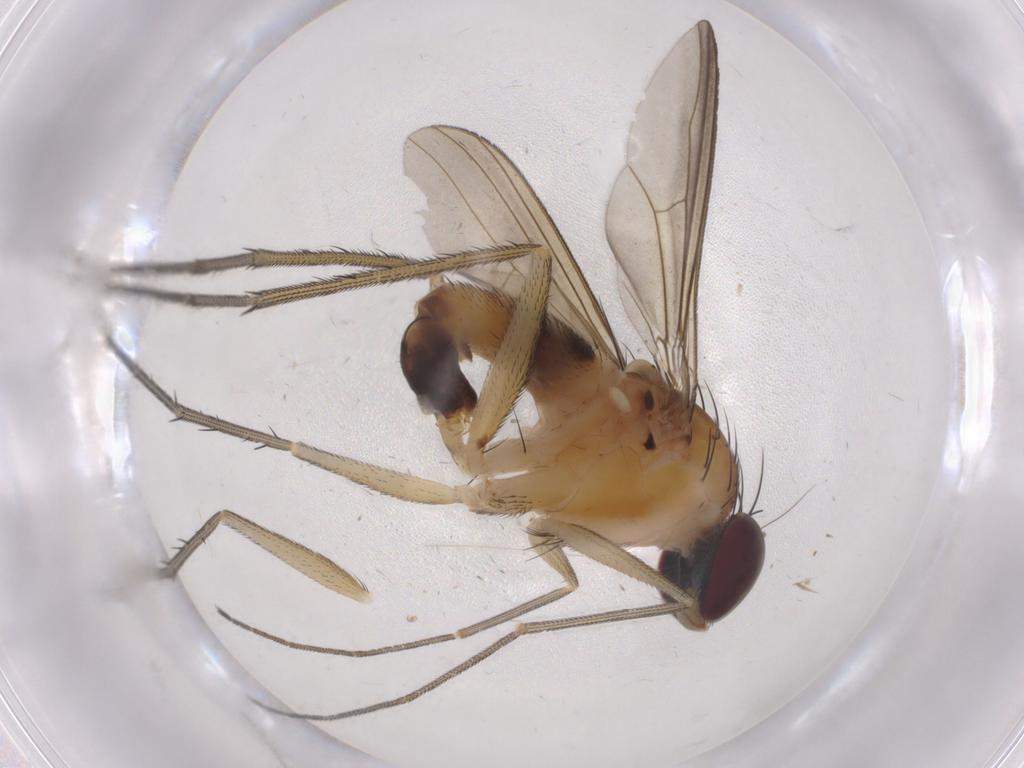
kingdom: Animalia
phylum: Arthropoda
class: Insecta
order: Diptera
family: Dolichopodidae
